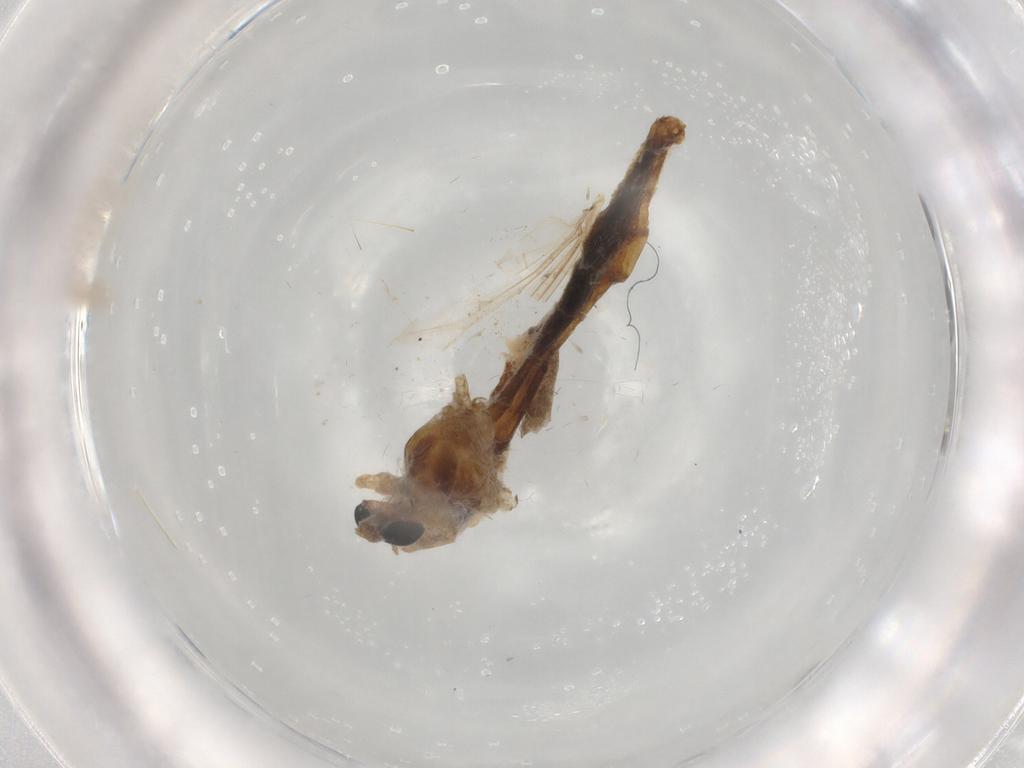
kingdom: Animalia
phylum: Arthropoda
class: Insecta
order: Diptera
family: Chironomidae
